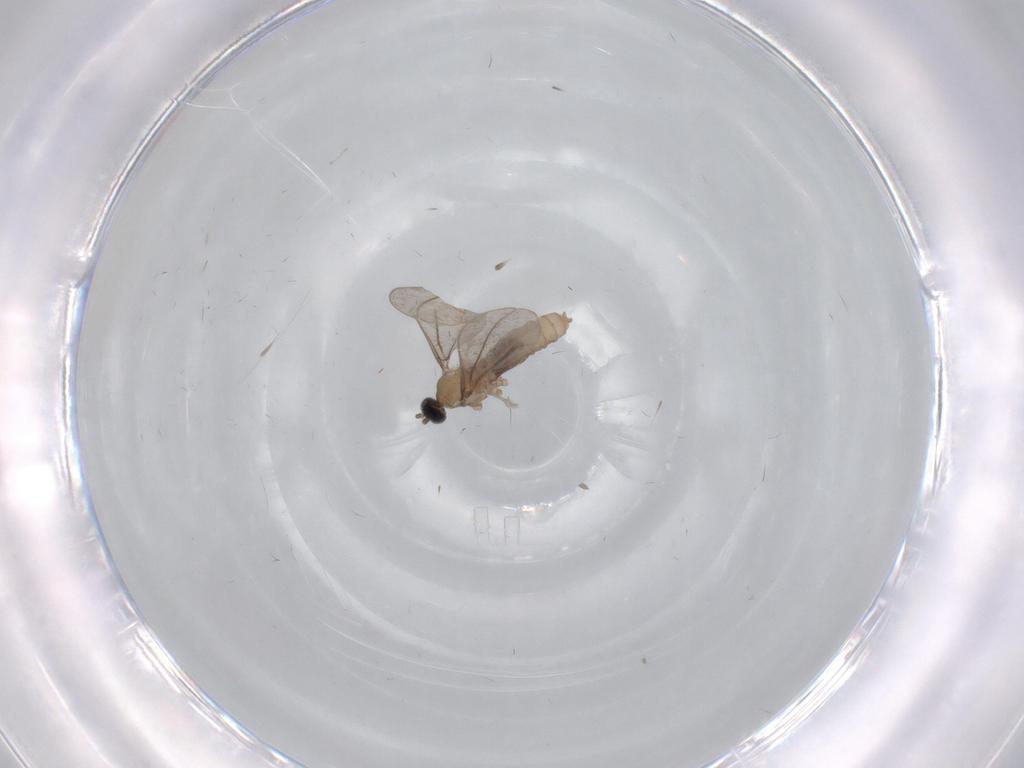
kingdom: Animalia
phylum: Arthropoda
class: Insecta
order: Diptera
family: Cecidomyiidae
